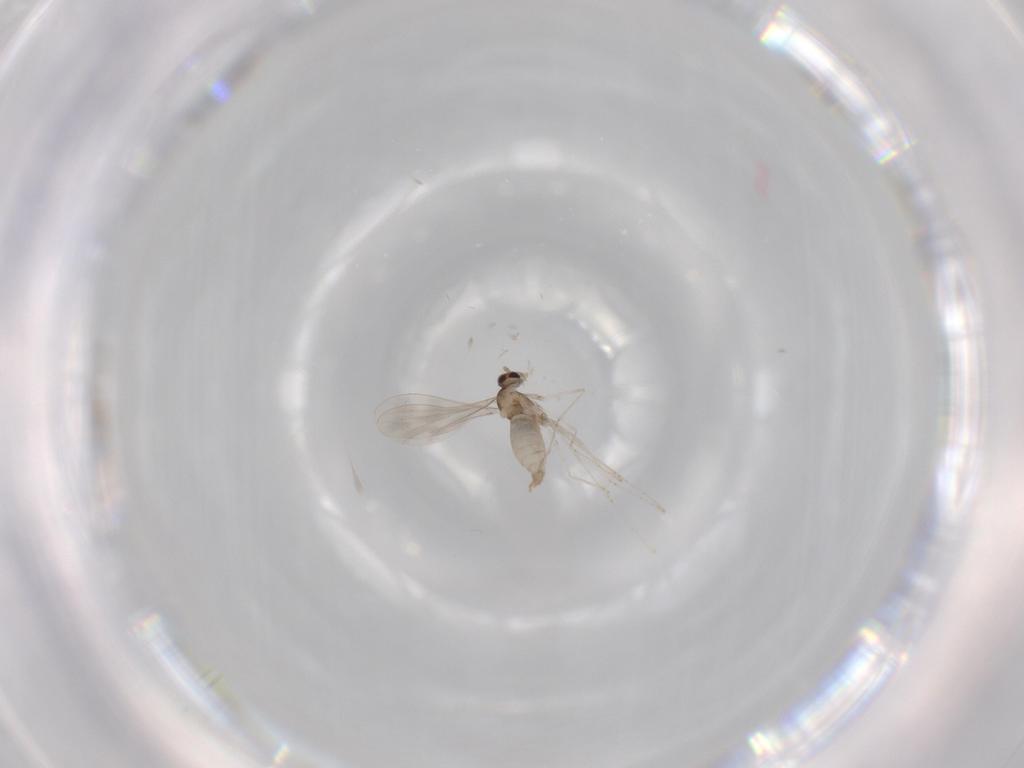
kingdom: Animalia
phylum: Arthropoda
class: Insecta
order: Diptera
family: Cecidomyiidae
